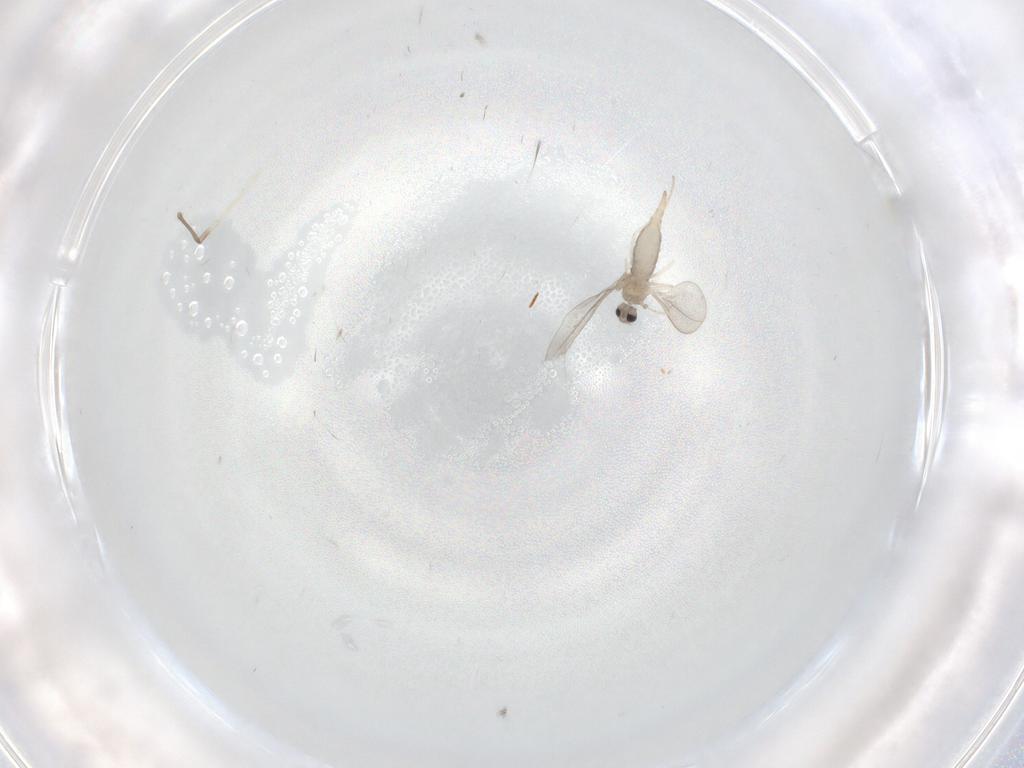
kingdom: Animalia
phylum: Arthropoda
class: Insecta
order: Diptera
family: Cecidomyiidae
